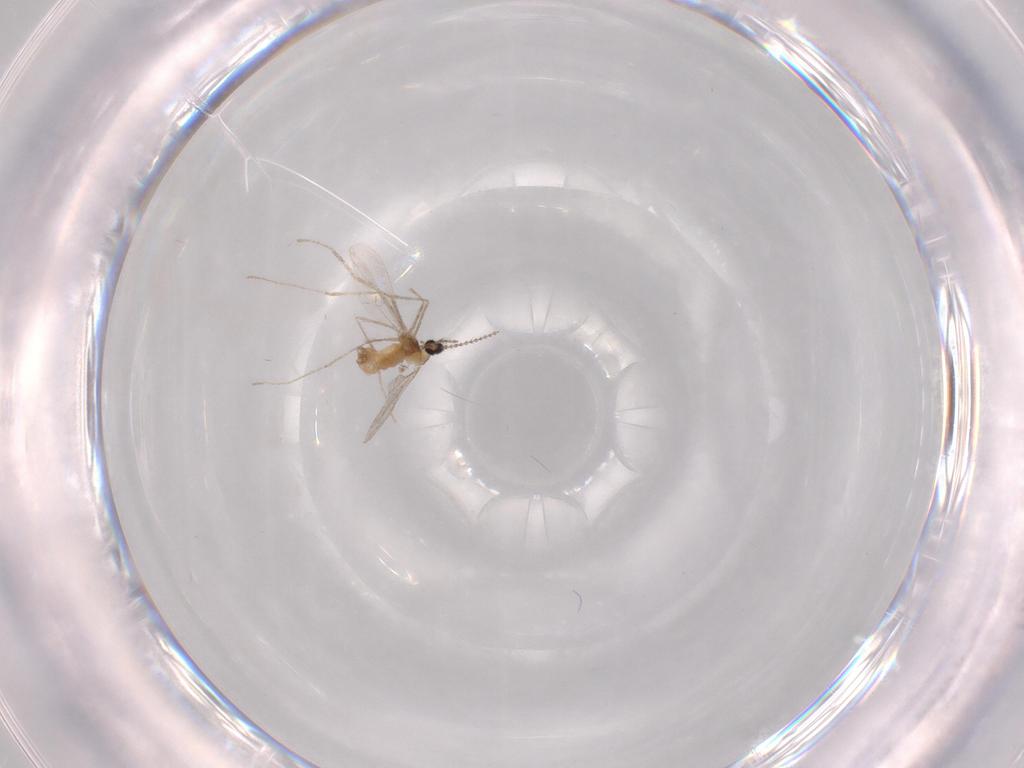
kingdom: Animalia
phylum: Arthropoda
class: Insecta
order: Diptera
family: Cecidomyiidae
